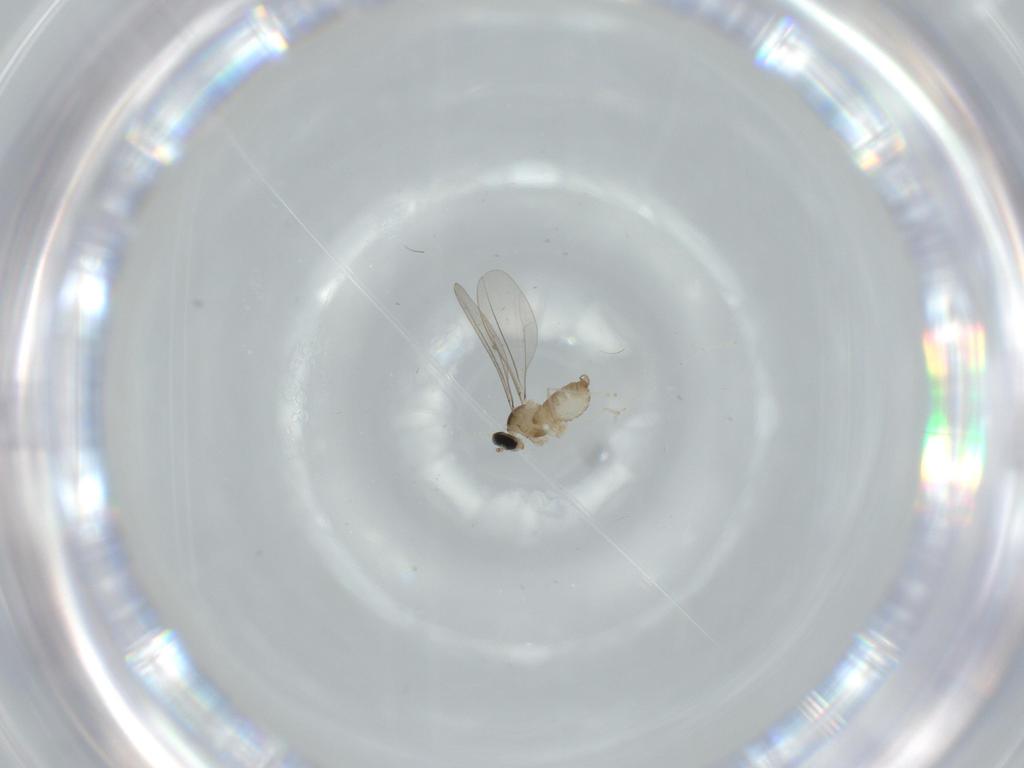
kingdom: Animalia
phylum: Arthropoda
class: Insecta
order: Diptera
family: Cecidomyiidae
